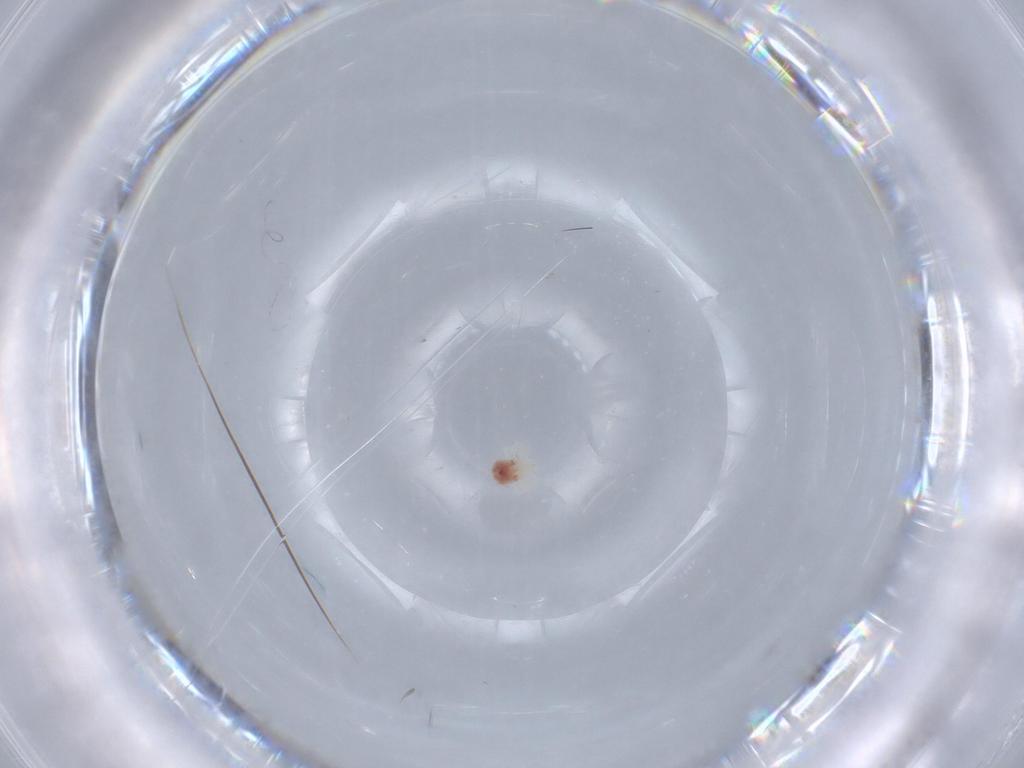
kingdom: Animalia
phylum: Arthropoda
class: Arachnida
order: Trombidiformes
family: Anystidae
